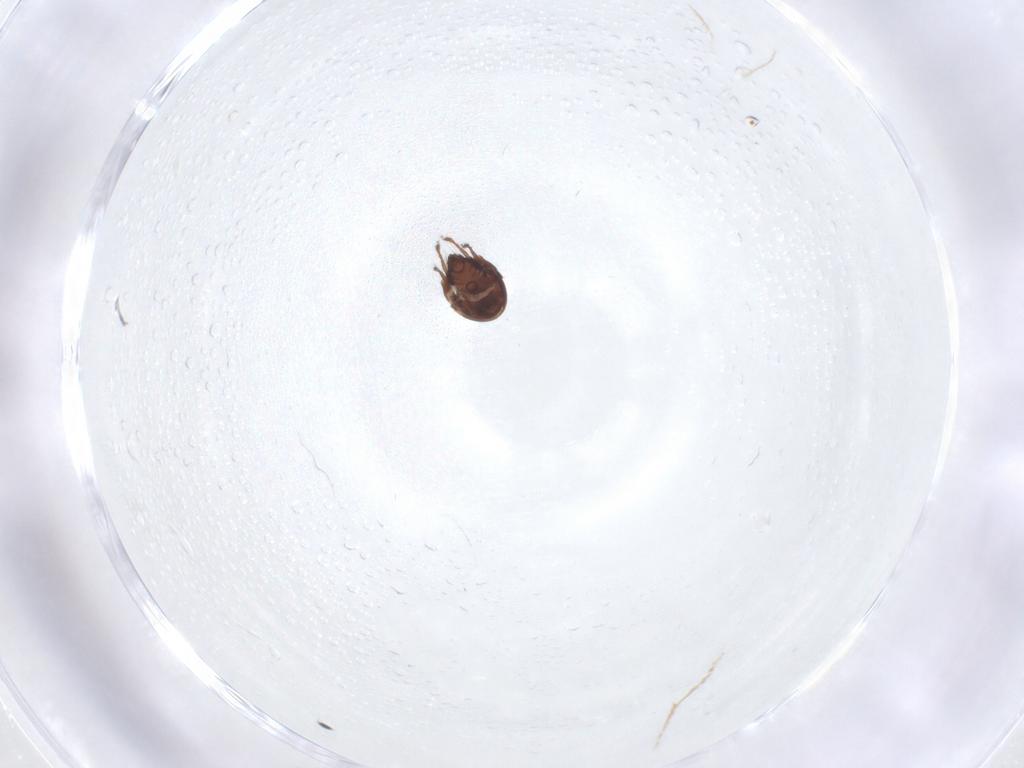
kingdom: Animalia
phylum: Arthropoda
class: Arachnida
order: Sarcoptiformes
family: Ceratozetidae
